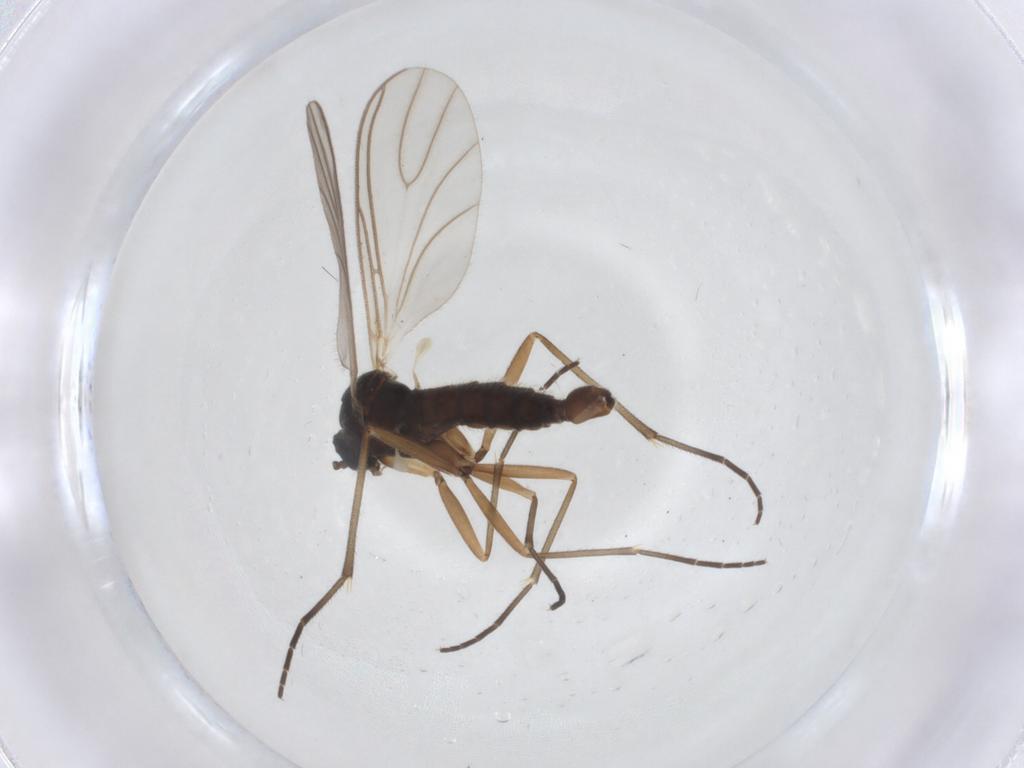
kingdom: Animalia
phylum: Arthropoda
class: Insecta
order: Diptera
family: Sciaridae
